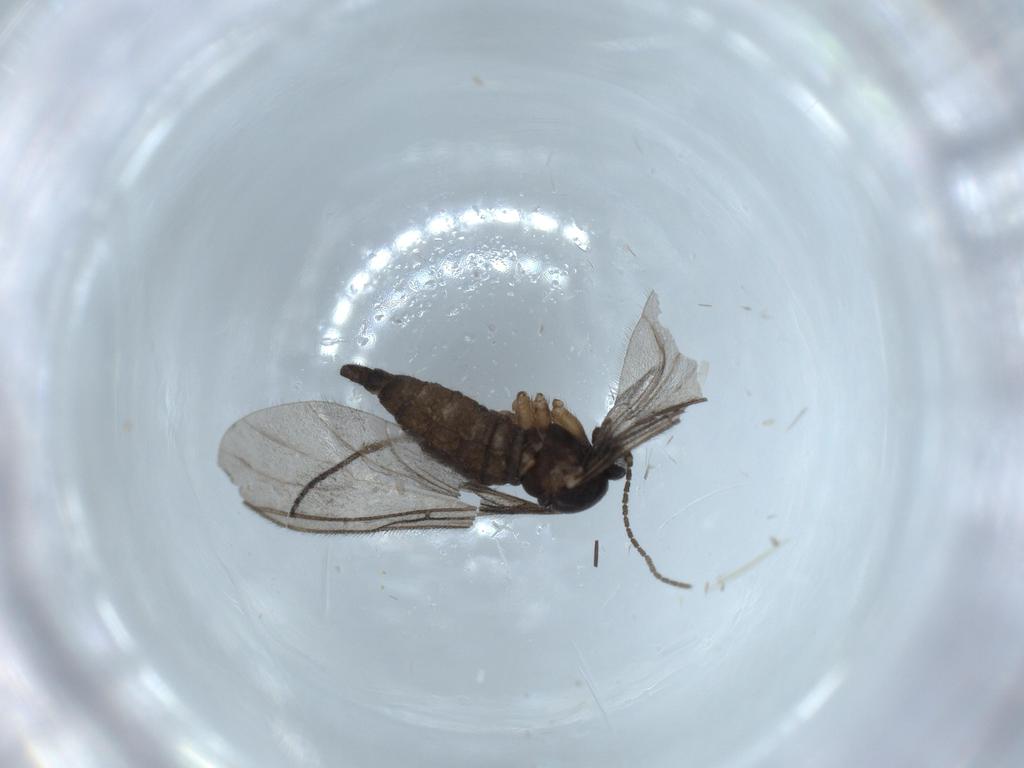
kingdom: Animalia
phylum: Arthropoda
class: Insecta
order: Diptera
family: Sciaridae
